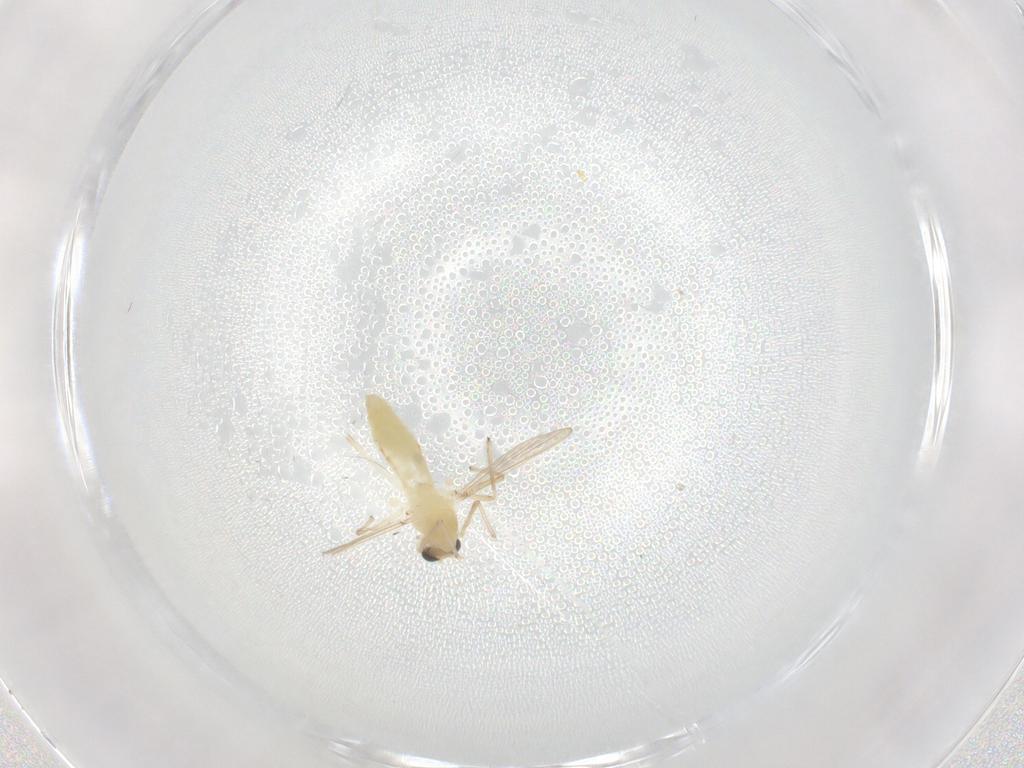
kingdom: Animalia
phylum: Arthropoda
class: Insecta
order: Diptera
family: Chironomidae
